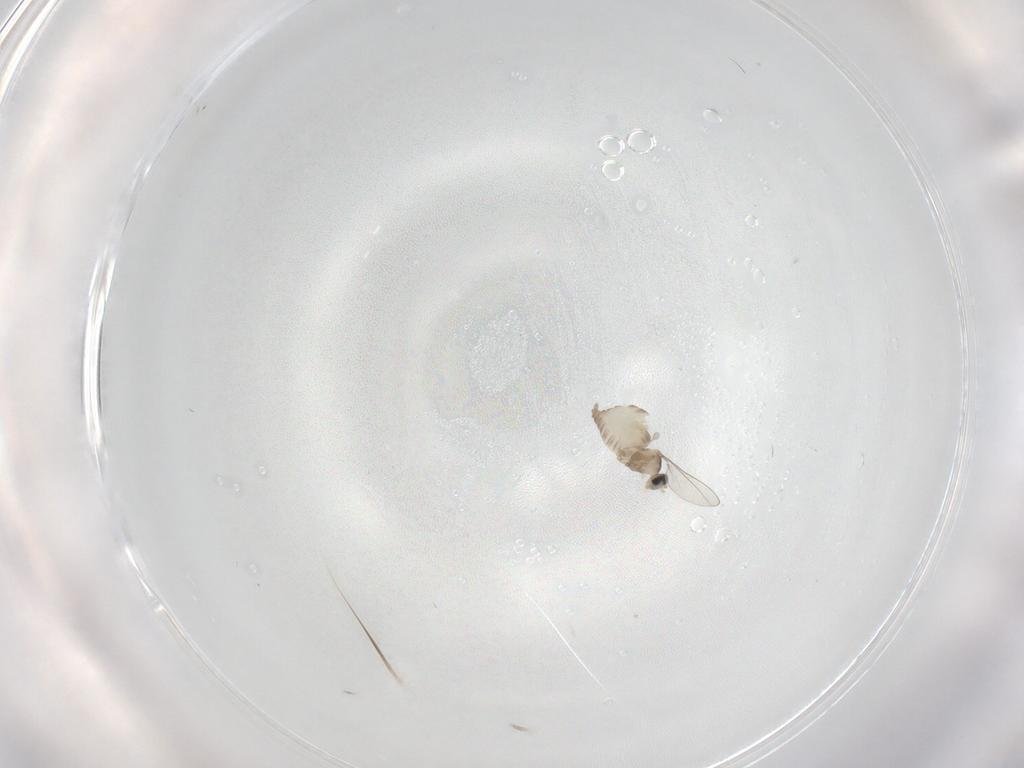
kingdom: Animalia
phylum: Arthropoda
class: Insecta
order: Diptera
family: Cecidomyiidae
